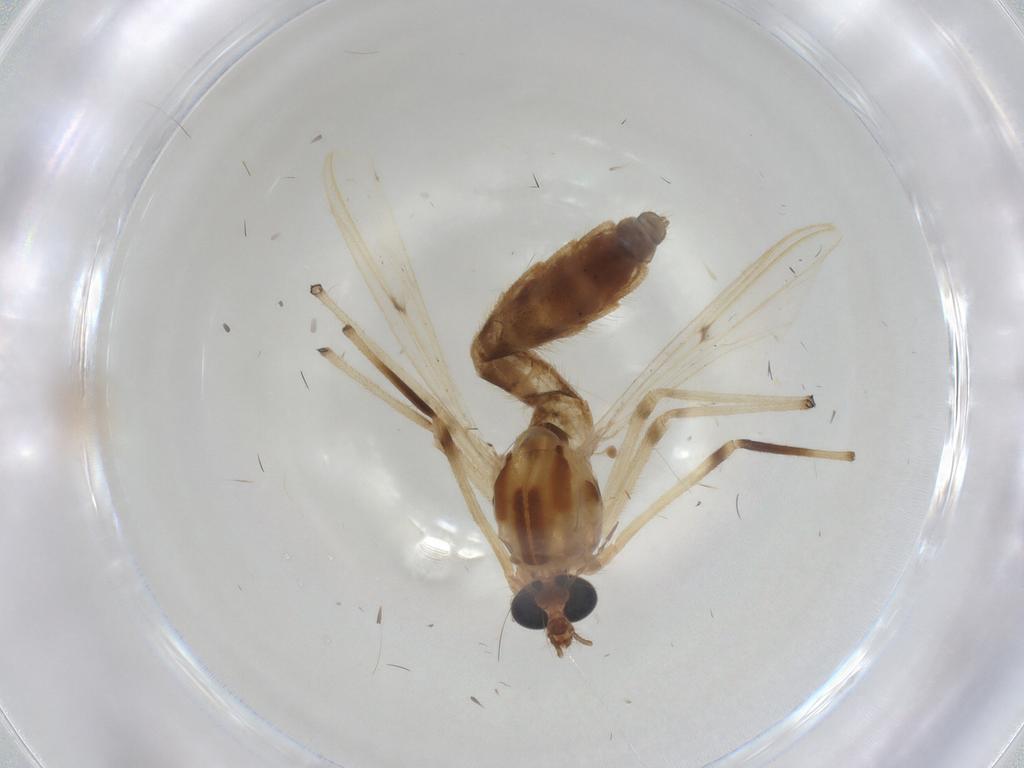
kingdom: Animalia
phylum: Arthropoda
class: Insecta
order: Diptera
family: Chironomidae
